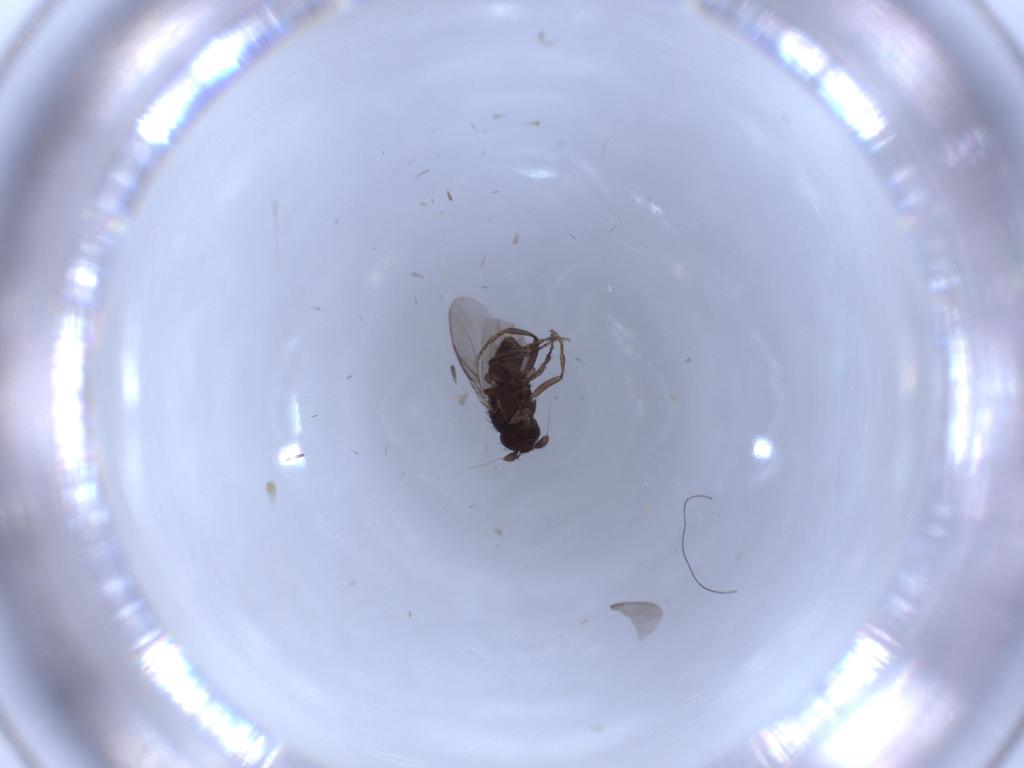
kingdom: Animalia
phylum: Arthropoda
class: Insecta
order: Diptera
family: Sphaeroceridae
